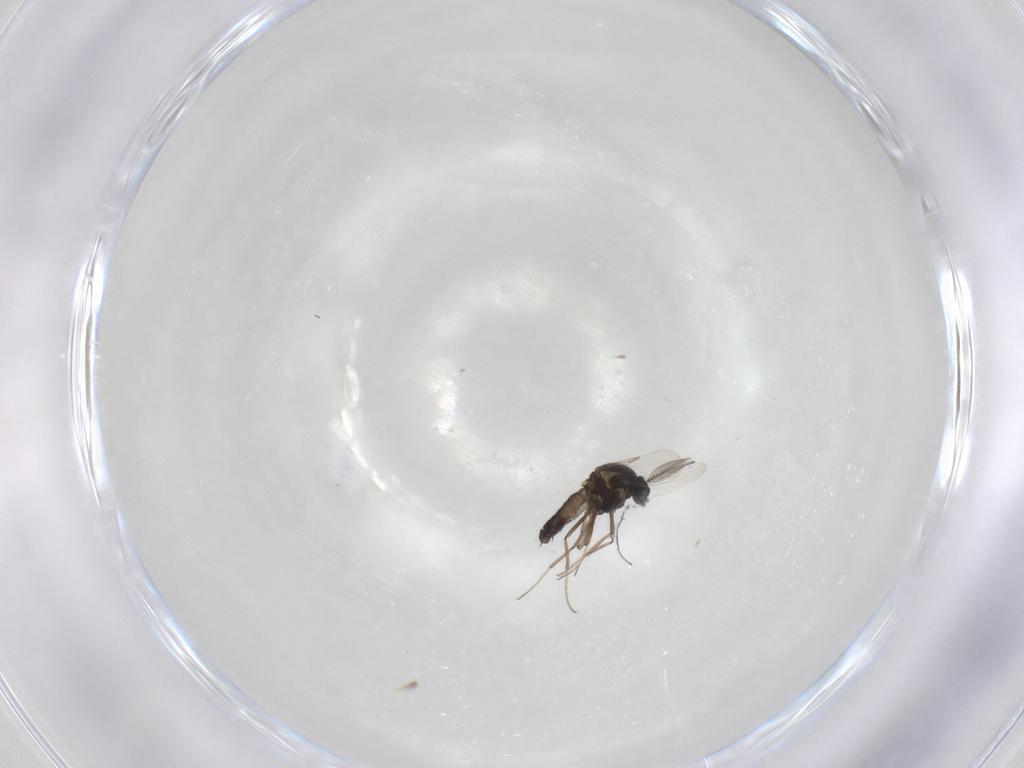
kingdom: Animalia
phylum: Arthropoda
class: Insecta
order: Diptera
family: Ceratopogonidae
